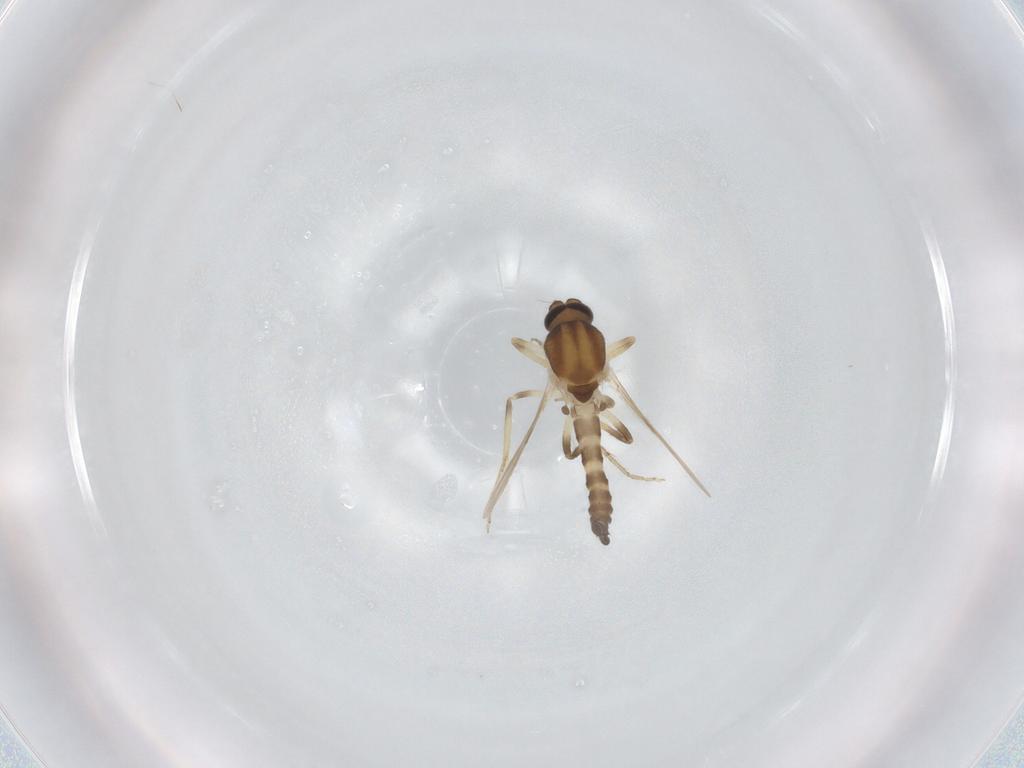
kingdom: Animalia
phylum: Arthropoda
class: Insecta
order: Diptera
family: Ceratopogonidae
